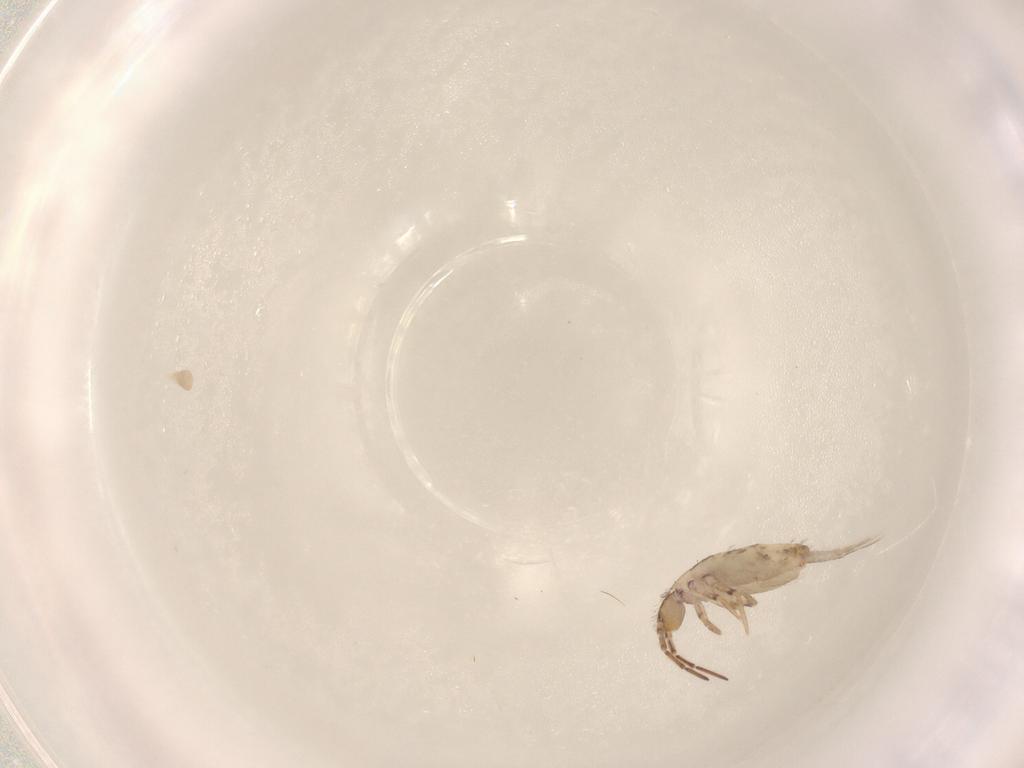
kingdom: Animalia
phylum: Arthropoda
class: Collembola
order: Entomobryomorpha
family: Entomobryidae
